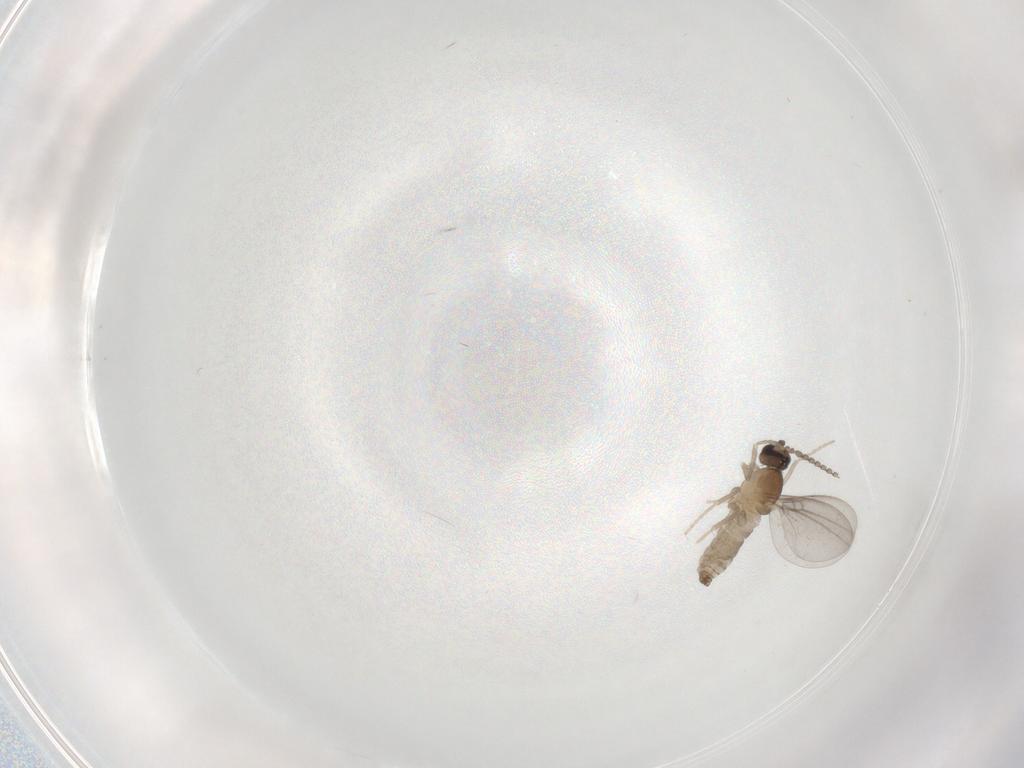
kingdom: Animalia
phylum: Arthropoda
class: Insecta
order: Diptera
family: Cecidomyiidae
